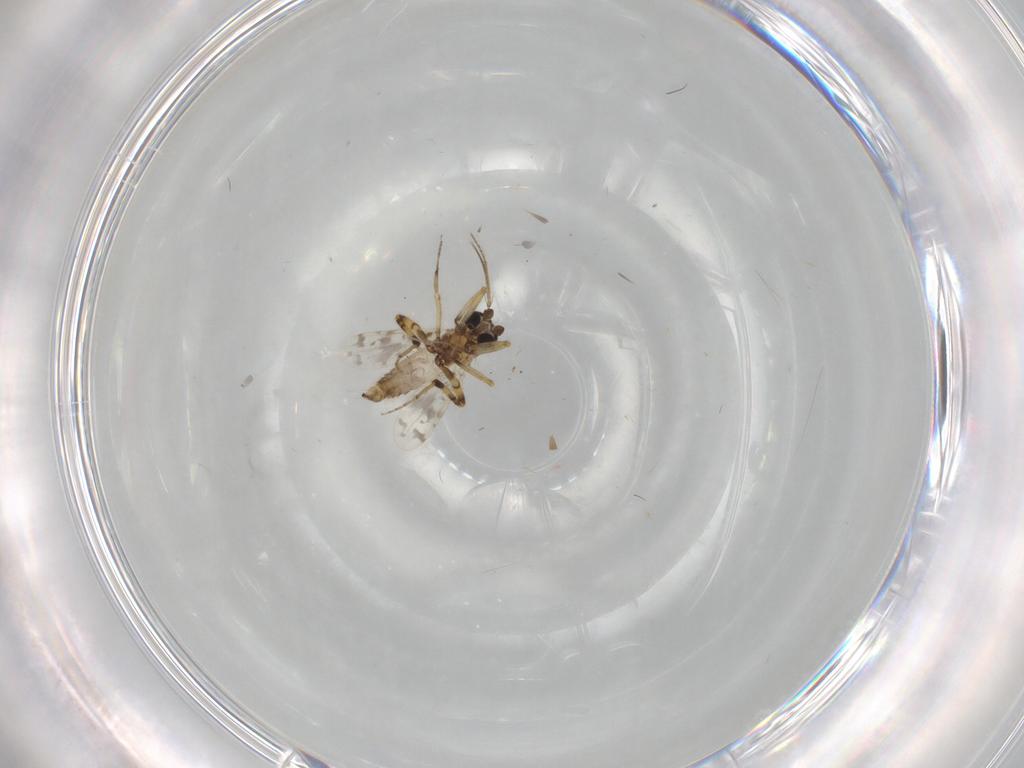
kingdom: Animalia
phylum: Arthropoda
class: Insecta
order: Diptera
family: Ceratopogonidae
